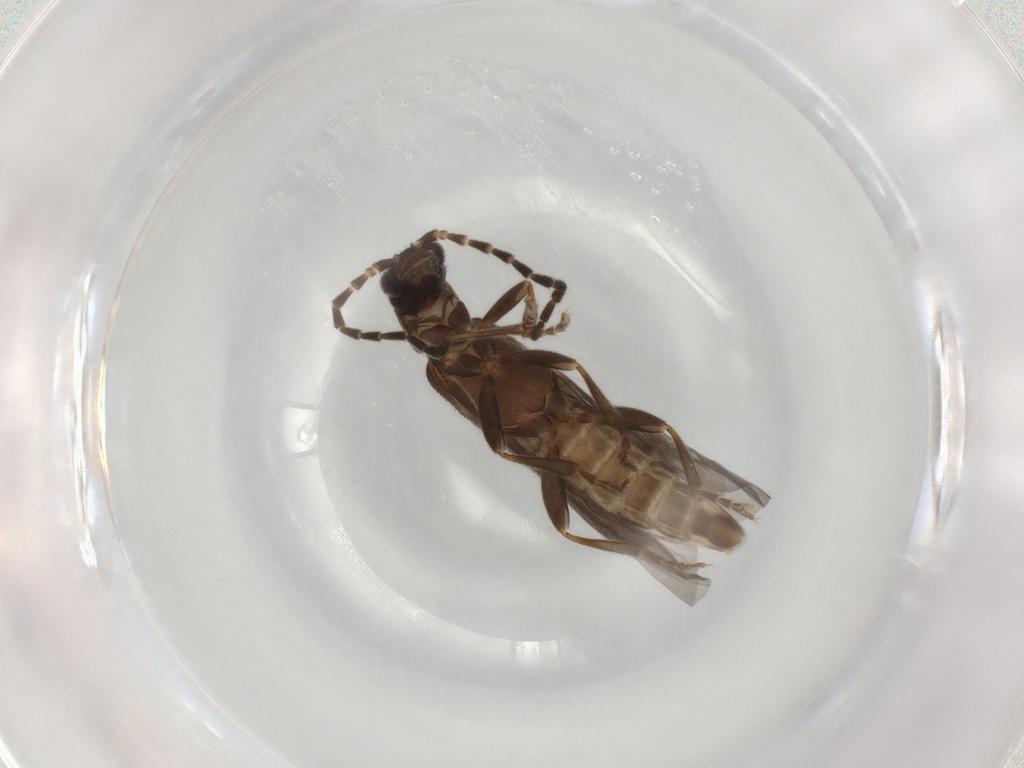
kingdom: Animalia
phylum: Arthropoda
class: Insecta
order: Coleoptera
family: Cantharidae
